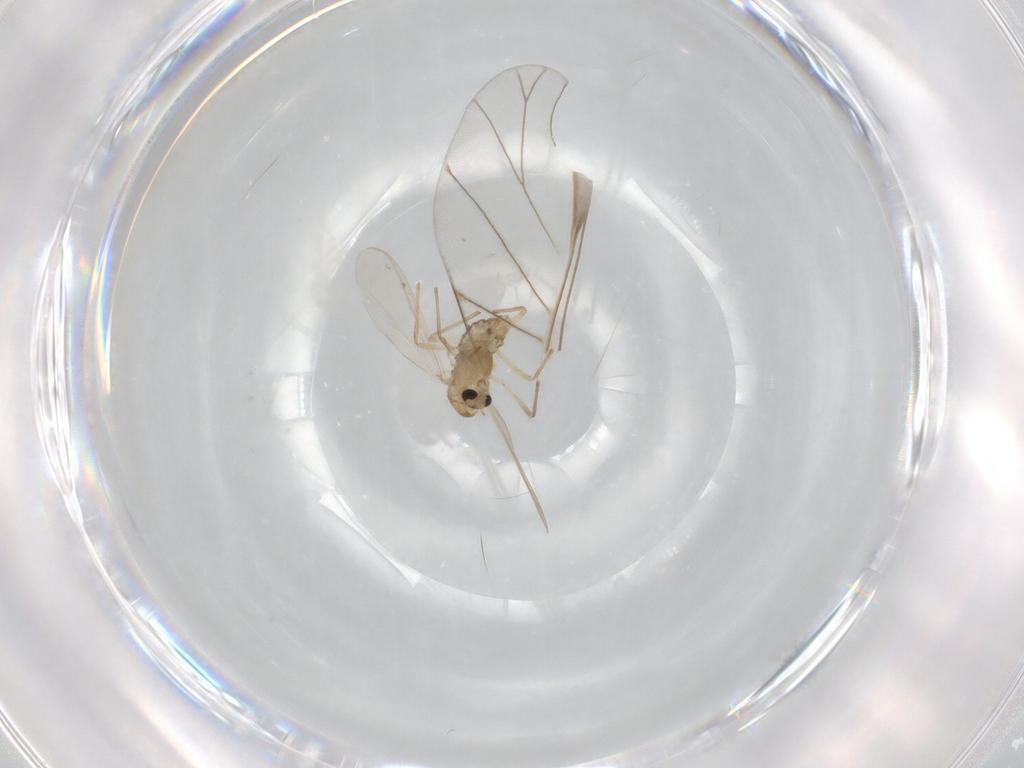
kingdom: Animalia
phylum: Arthropoda
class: Insecta
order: Diptera
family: Chironomidae
